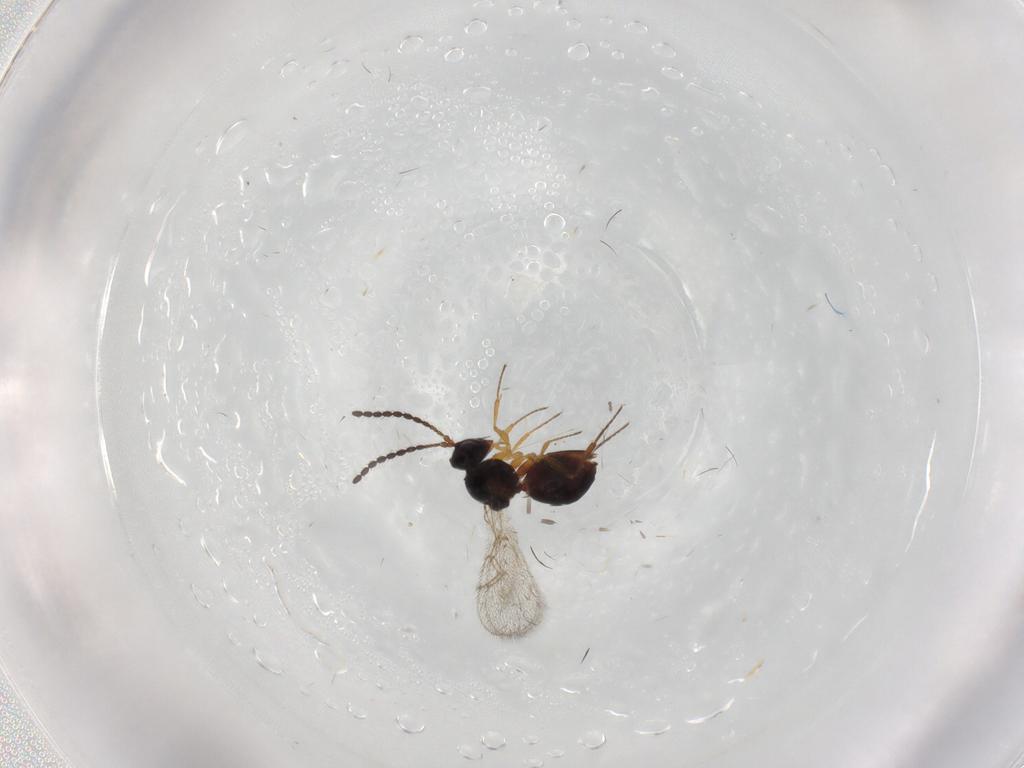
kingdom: Animalia
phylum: Arthropoda
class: Insecta
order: Hymenoptera
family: Figitidae
